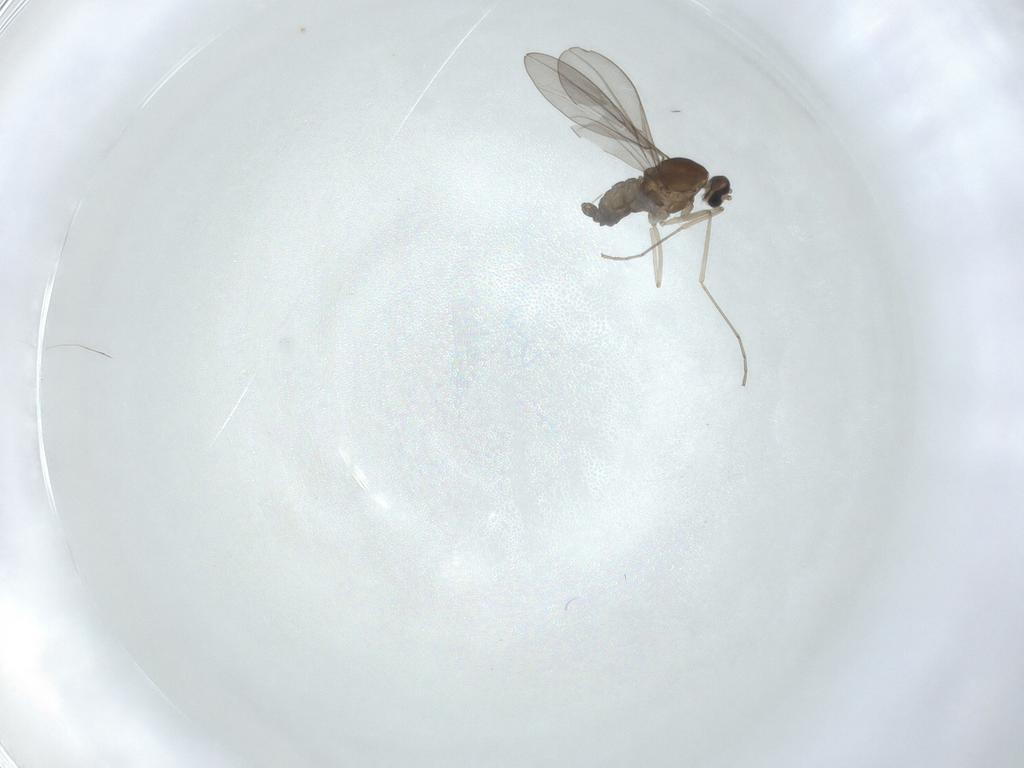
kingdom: Animalia
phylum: Arthropoda
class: Insecta
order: Diptera
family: Cecidomyiidae
